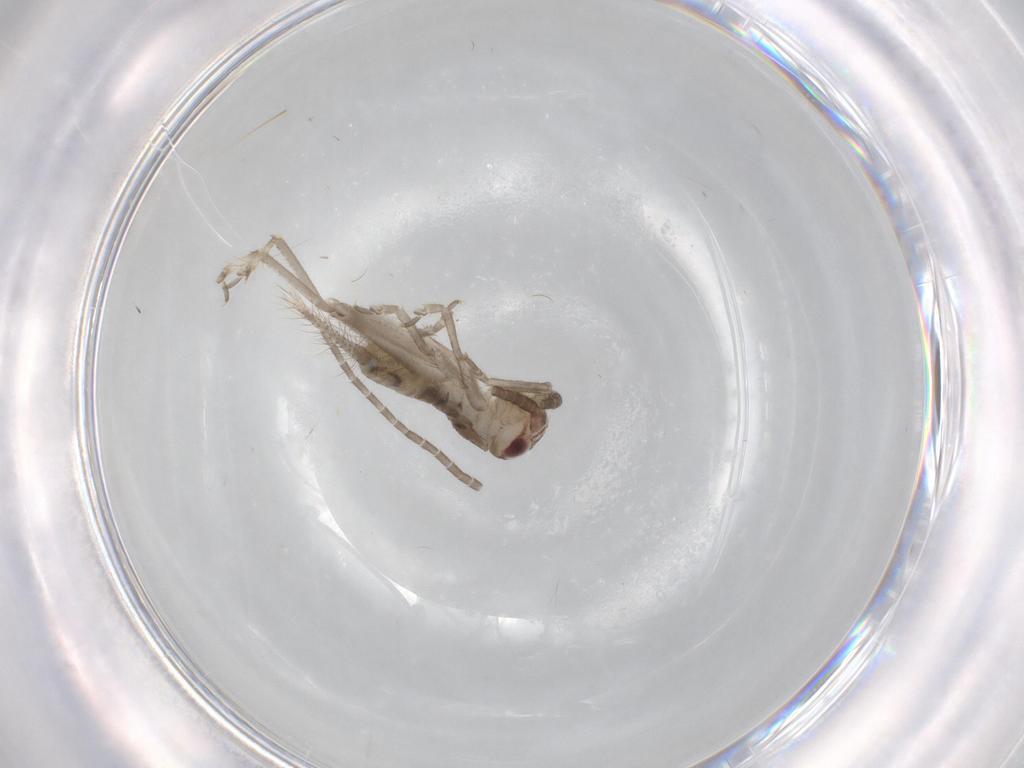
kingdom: Animalia
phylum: Arthropoda
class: Insecta
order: Orthoptera
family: Gryllidae
